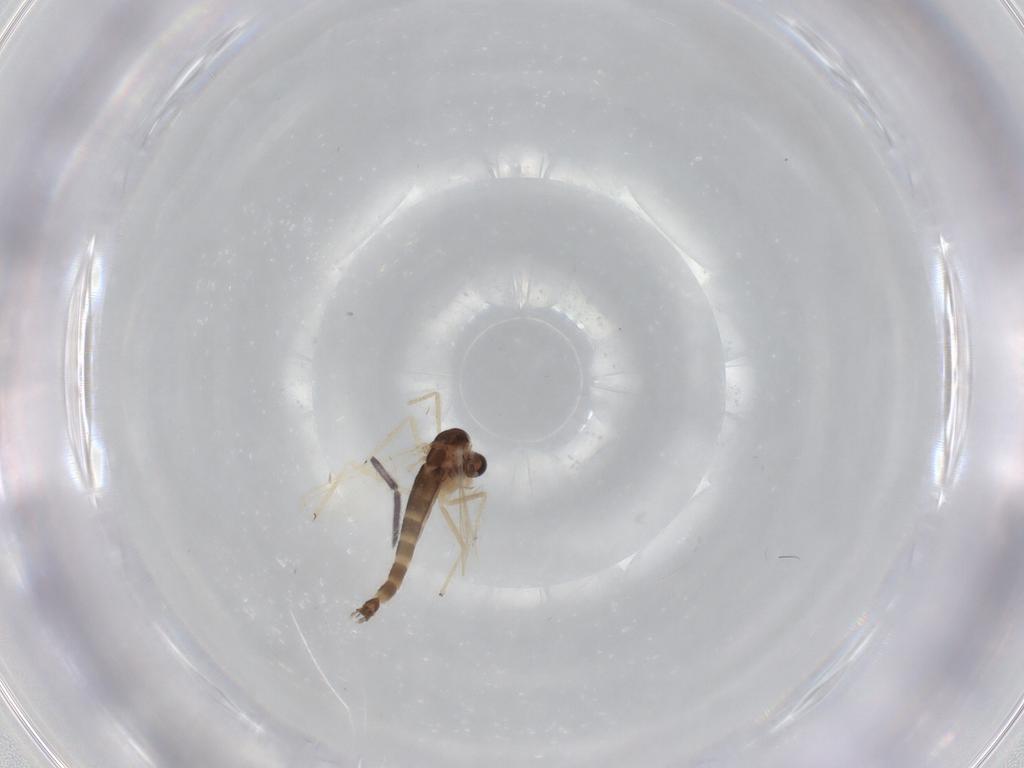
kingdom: Animalia
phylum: Arthropoda
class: Insecta
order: Diptera
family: Chironomidae
